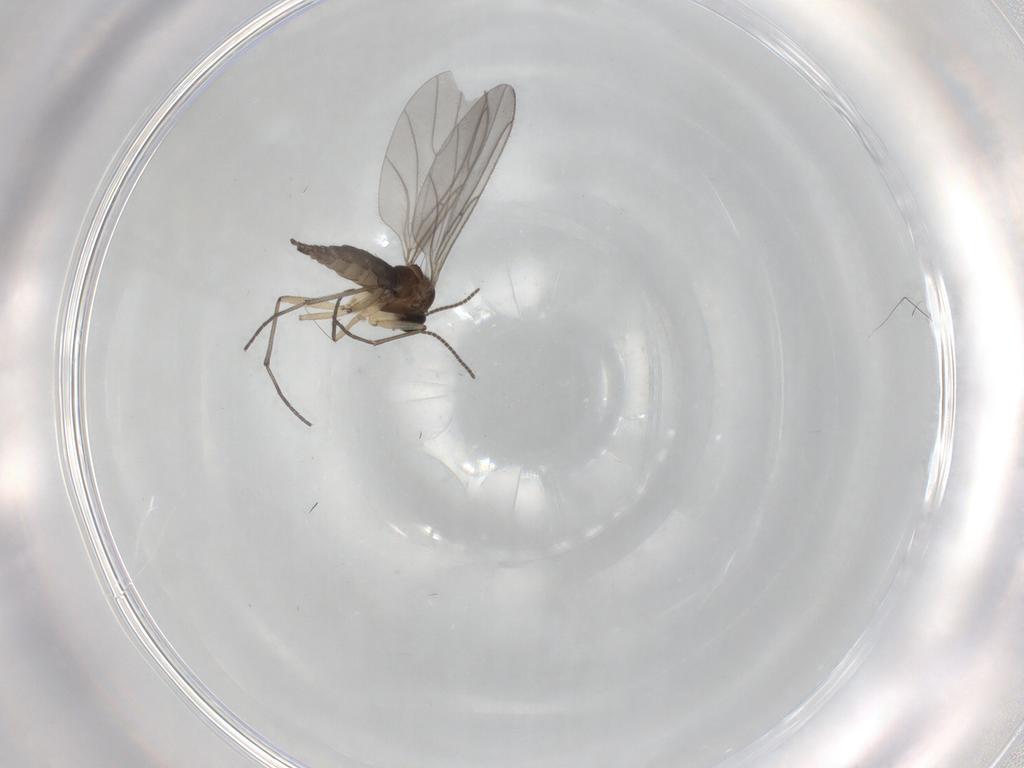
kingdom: Animalia
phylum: Arthropoda
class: Insecta
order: Diptera
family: Sciaridae
